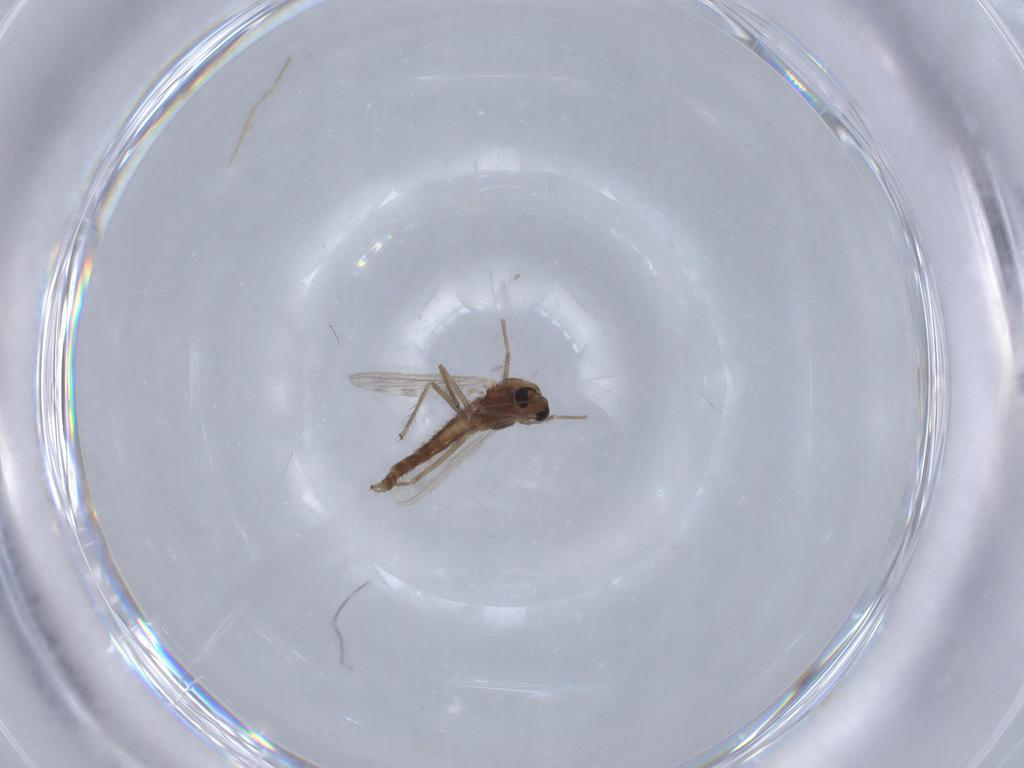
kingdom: Animalia
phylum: Arthropoda
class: Insecta
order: Diptera
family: Chironomidae
